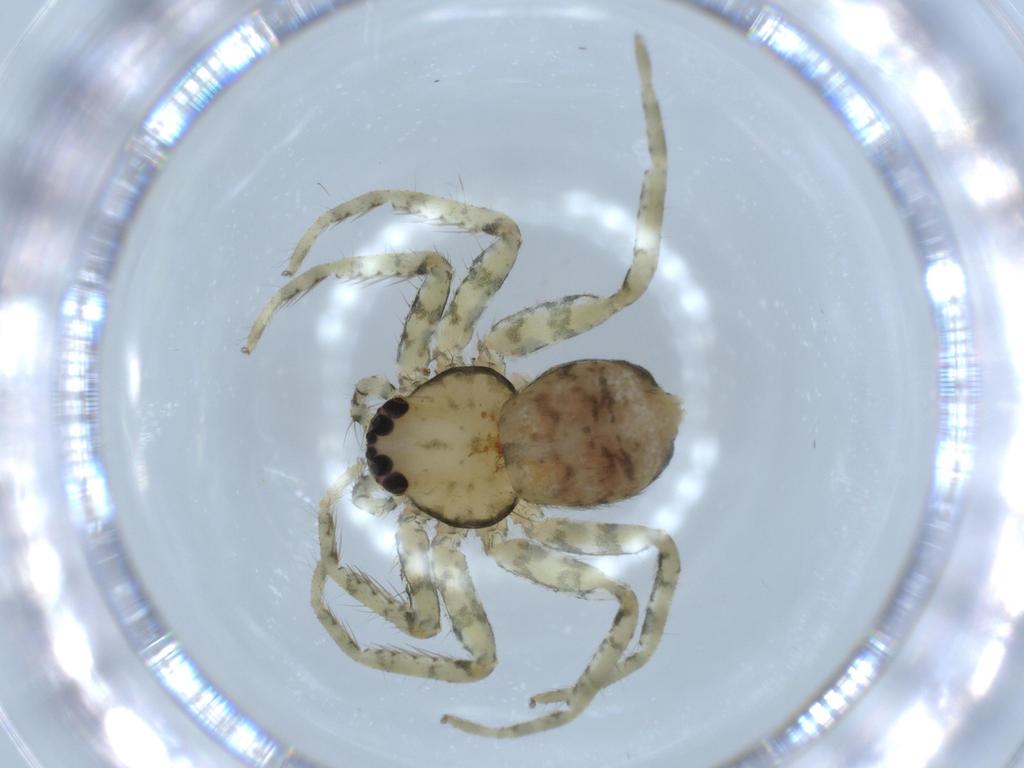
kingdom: Animalia
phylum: Arthropoda
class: Arachnida
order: Araneae
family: Selenopidae
